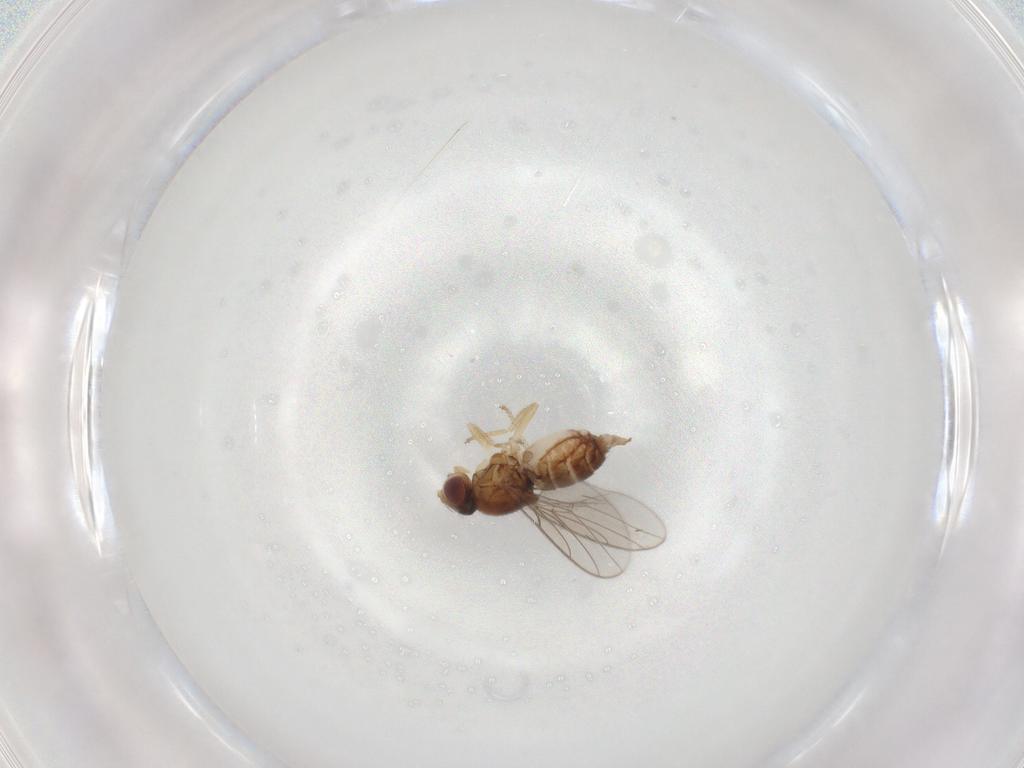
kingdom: Animalia
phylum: Arthropoda
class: Insecta
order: Diptera
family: Chloropidae
